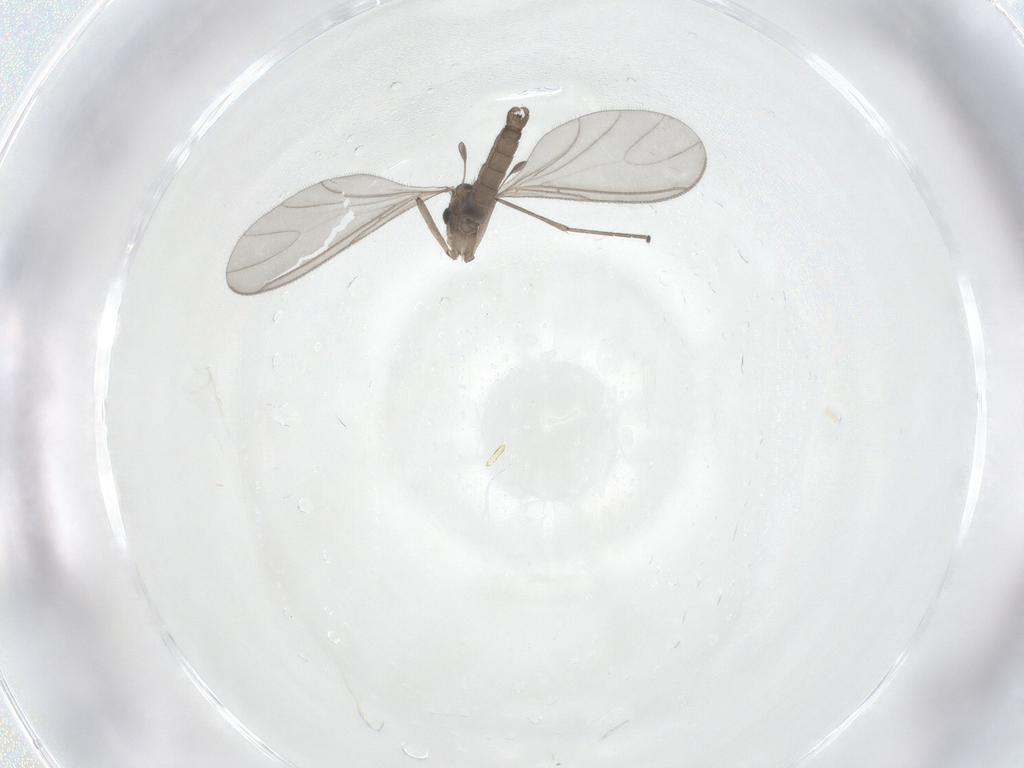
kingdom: Animalia
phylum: Arthropoda
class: Insecta
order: Diptera
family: Sciaridae
